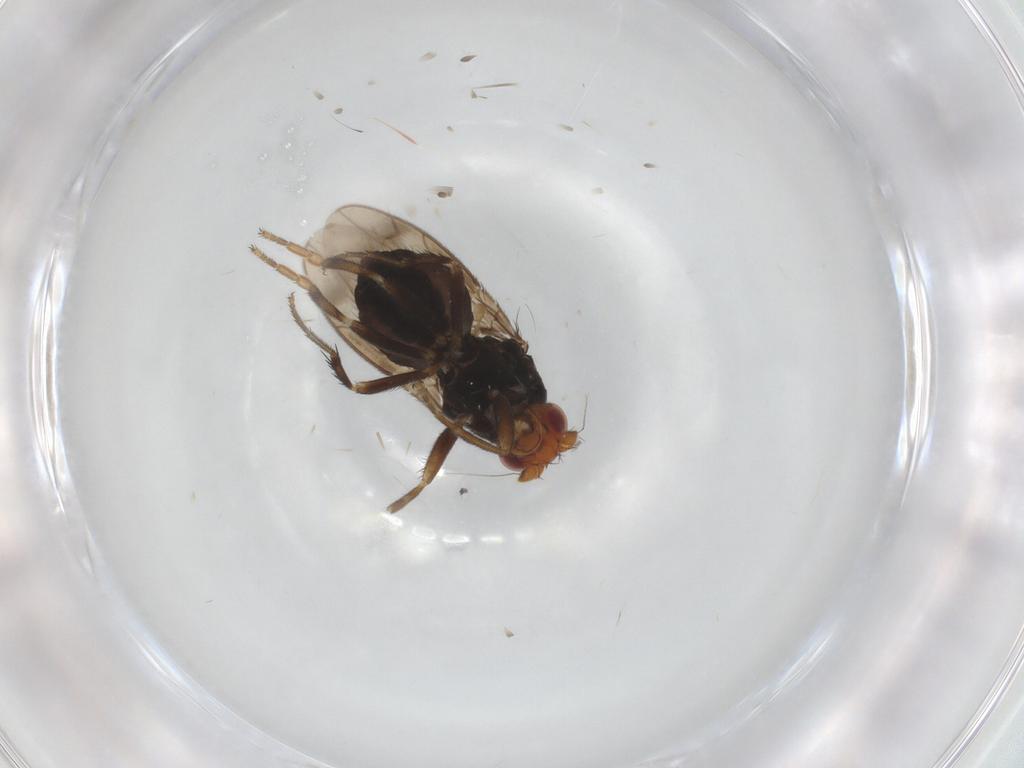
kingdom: Animalia
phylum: Arthropoda
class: Insecta
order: Diptera
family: Sphaeroceridae
